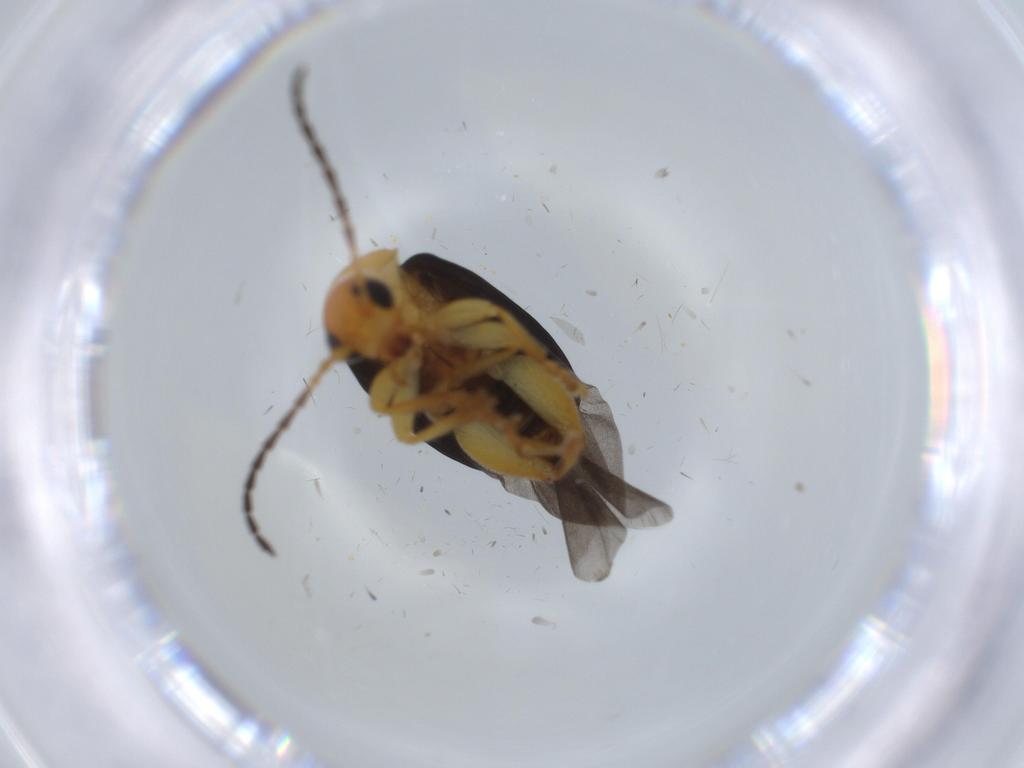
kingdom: Animalia
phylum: Arthropoda
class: Insecta
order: Coleoptera
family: Chrysomelidae
